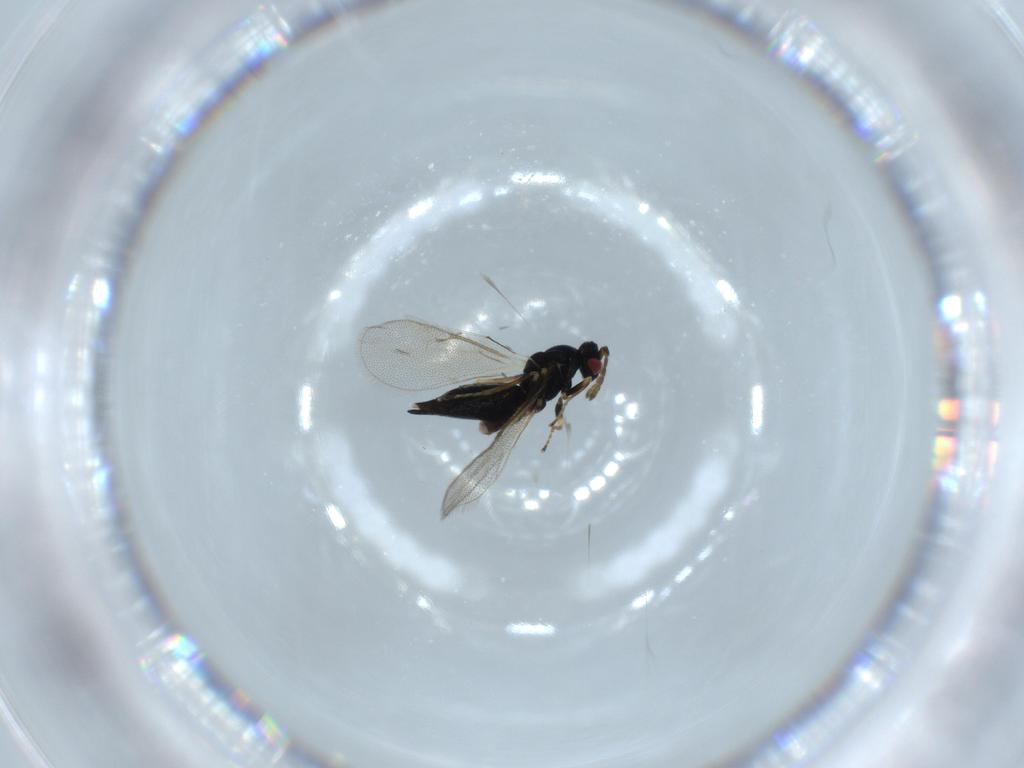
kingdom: Animalia
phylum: Arthropoda
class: Insecta
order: Hymenoptera
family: Eulophidae
